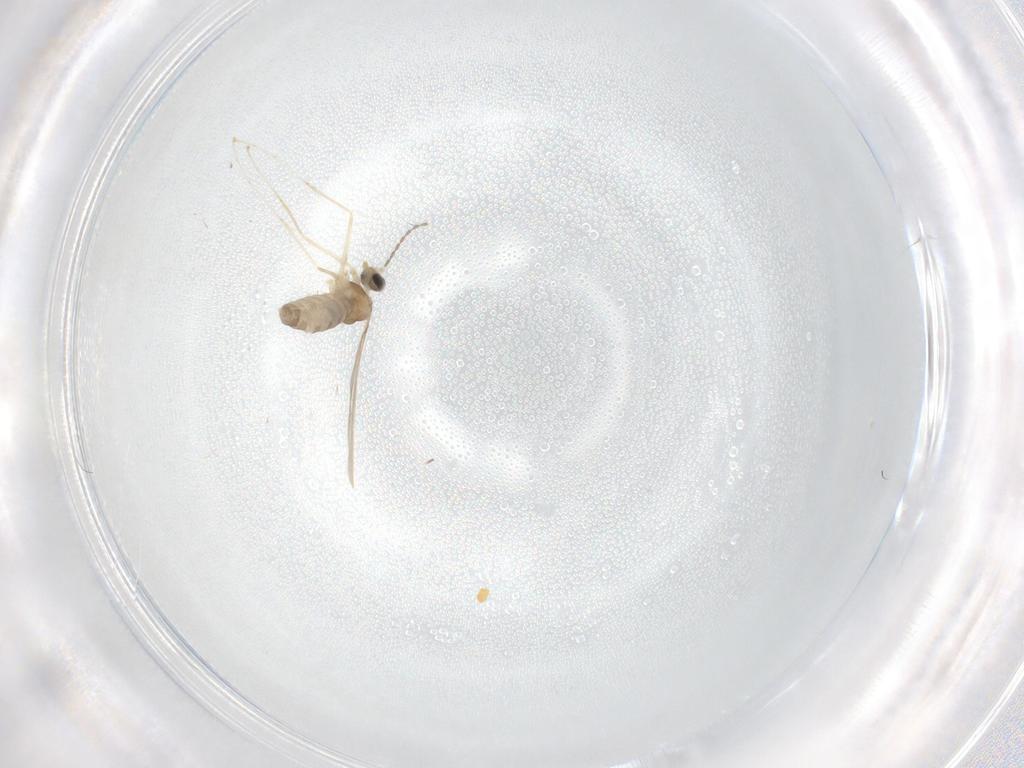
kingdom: Animalia
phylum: Arthropoda
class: Insecta
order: Diptera
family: Cecidomyiidae
